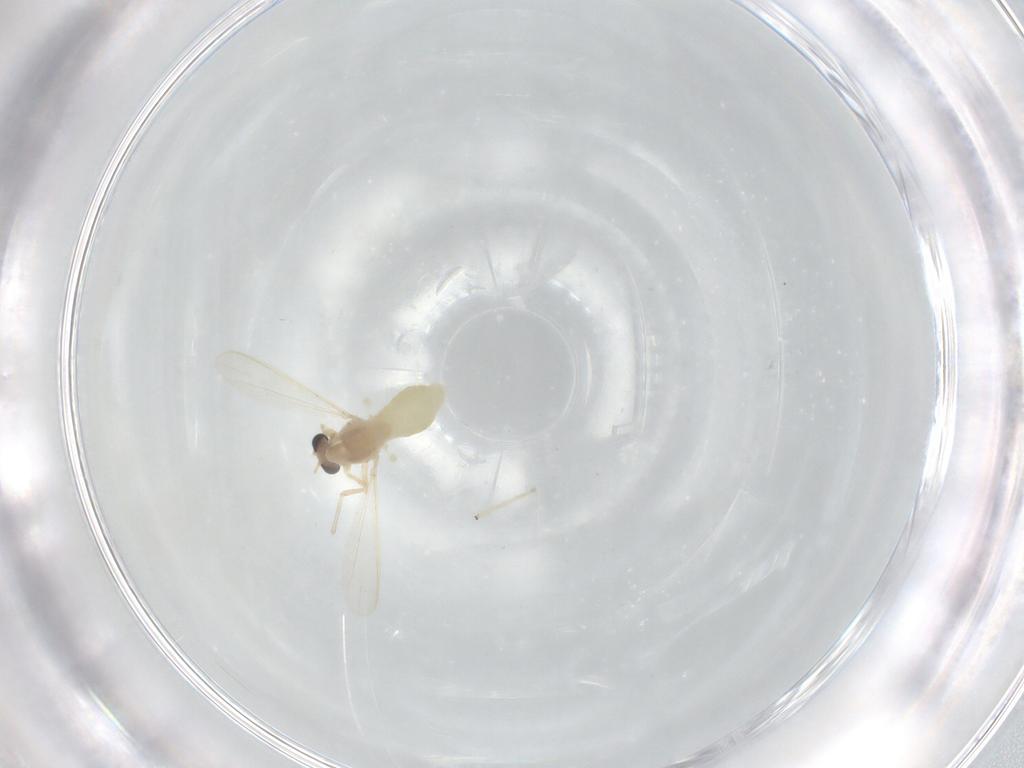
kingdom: Animalia
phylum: Arthropoda
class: Insecta
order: Diptera
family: Chironomidae
